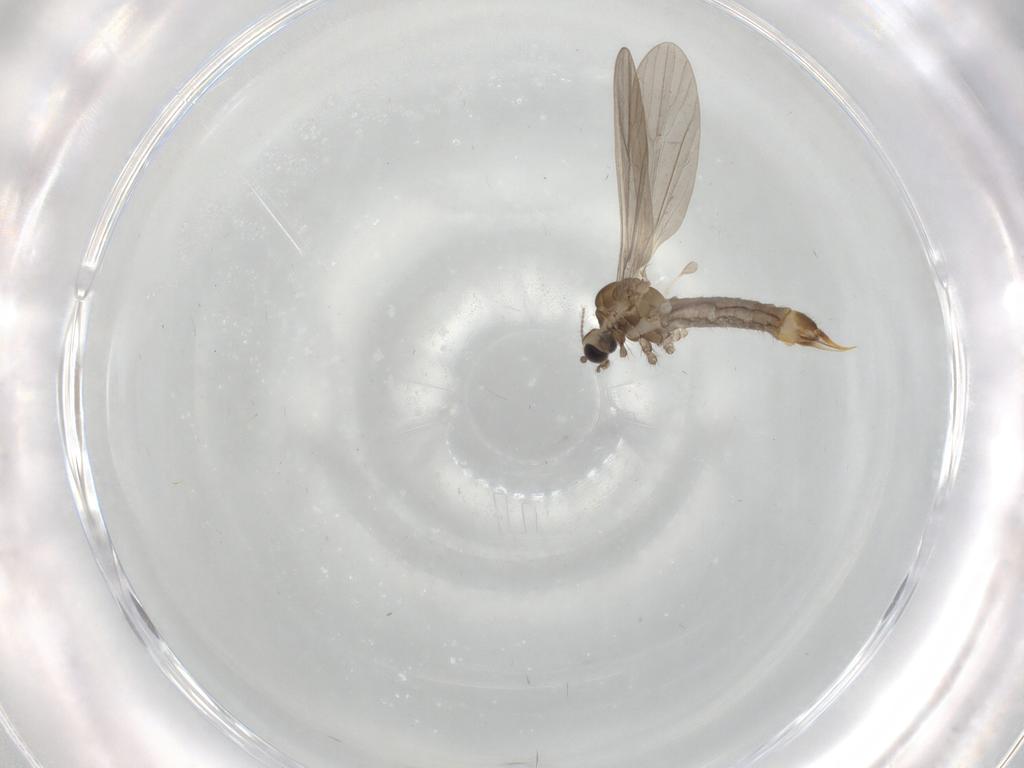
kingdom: Animalia
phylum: Arthropoda
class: Insecta
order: Diptera
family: Limoniidae
